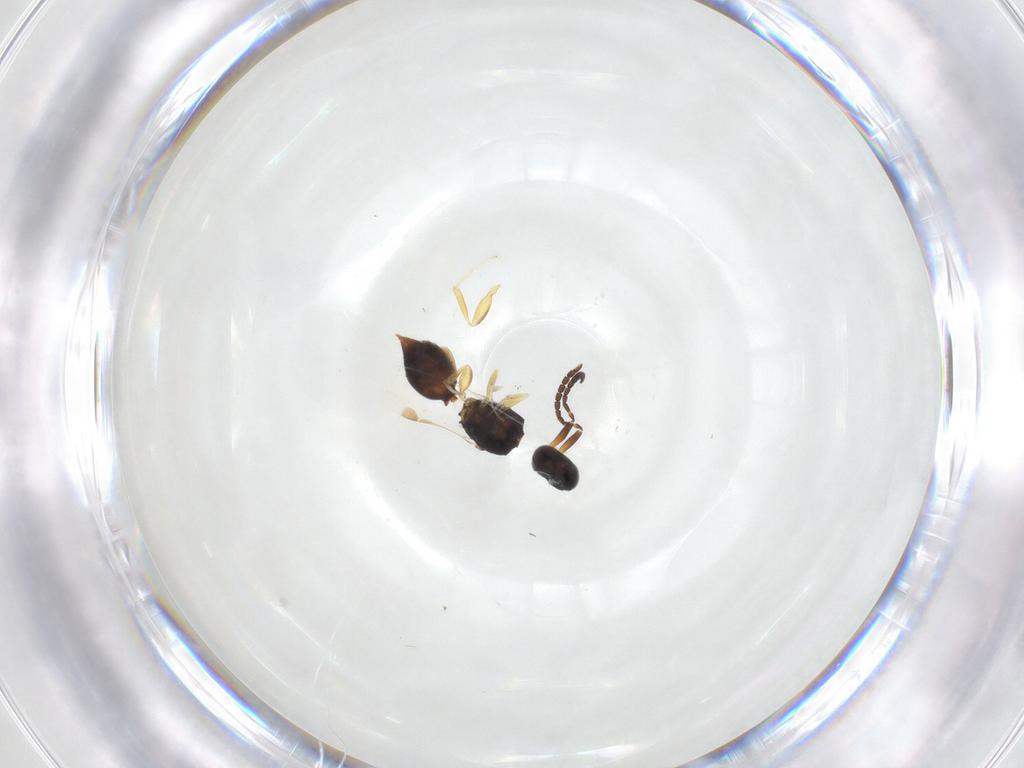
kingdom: Animalia
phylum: Arthropoda
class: Insecta
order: Hymenoptera
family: Megaspilidae
